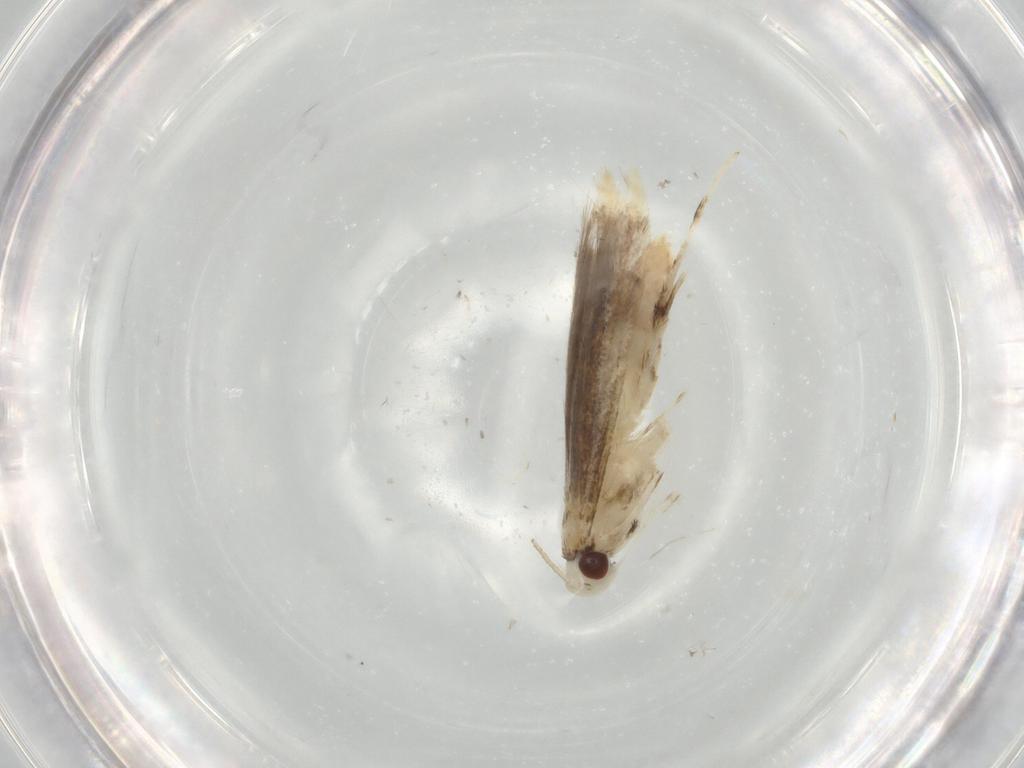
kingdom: Animalia
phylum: Arthropoda
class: Insecta
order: Lepidoptera
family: Gracillariidae
